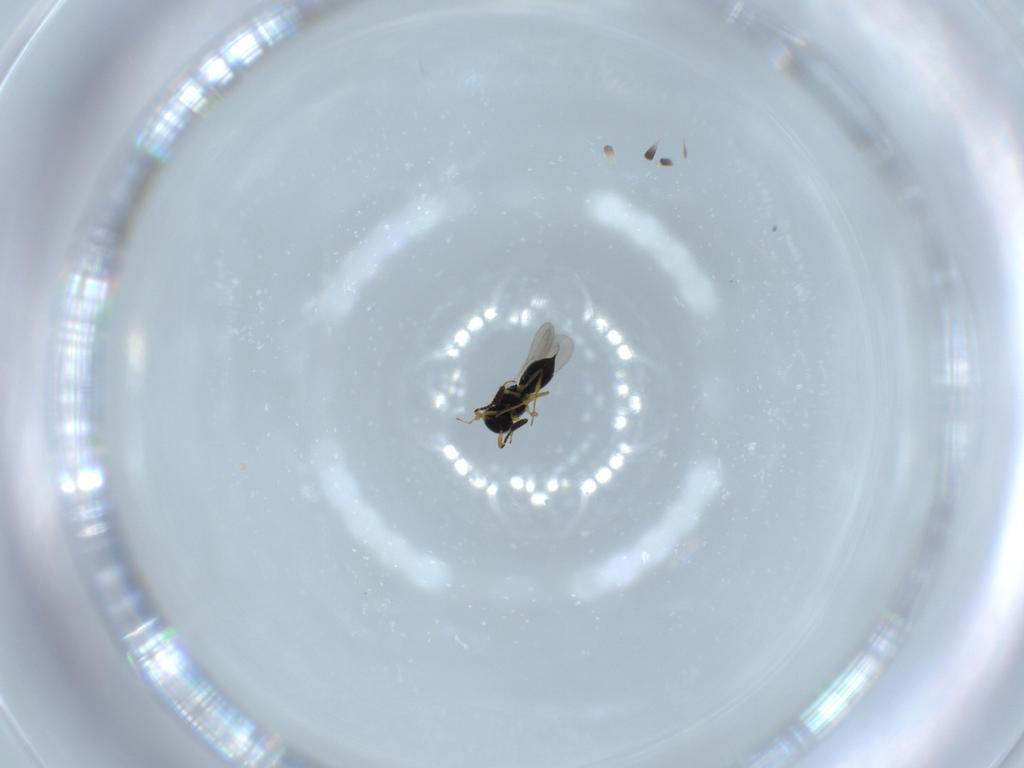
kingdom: Animalia
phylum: Arthropoda
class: Insecta
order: Hymenoptera
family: Scelionidae
